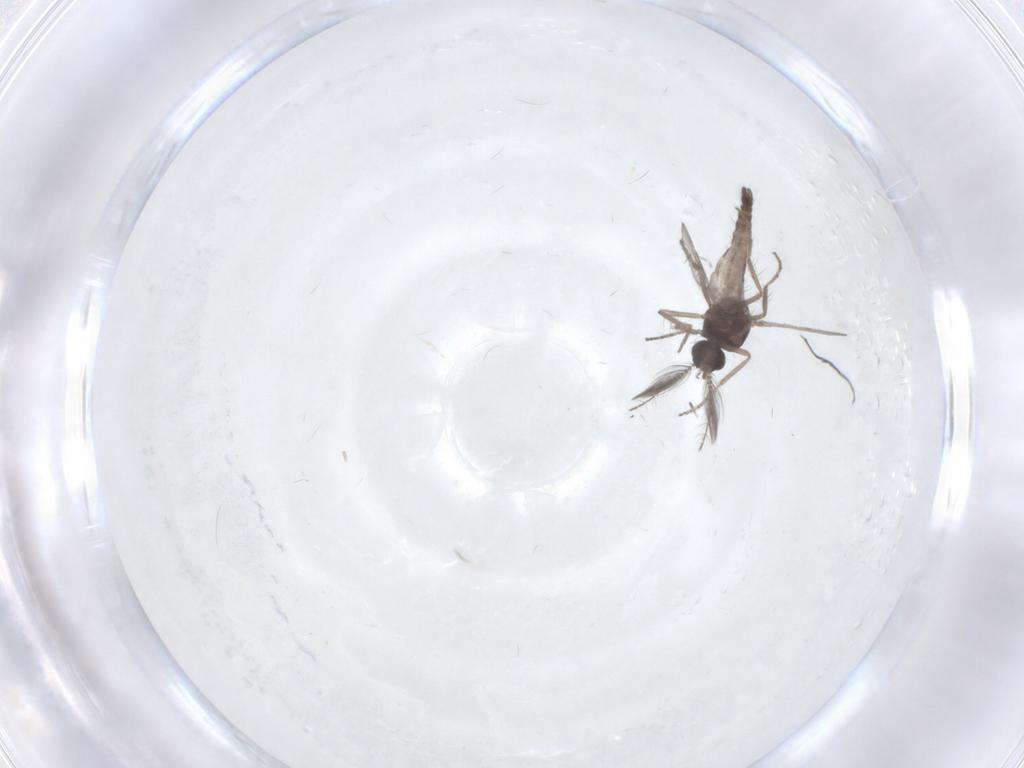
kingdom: Animalia
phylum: Arthropoda
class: Insecta
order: Diptera
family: Ceratopogonidae
